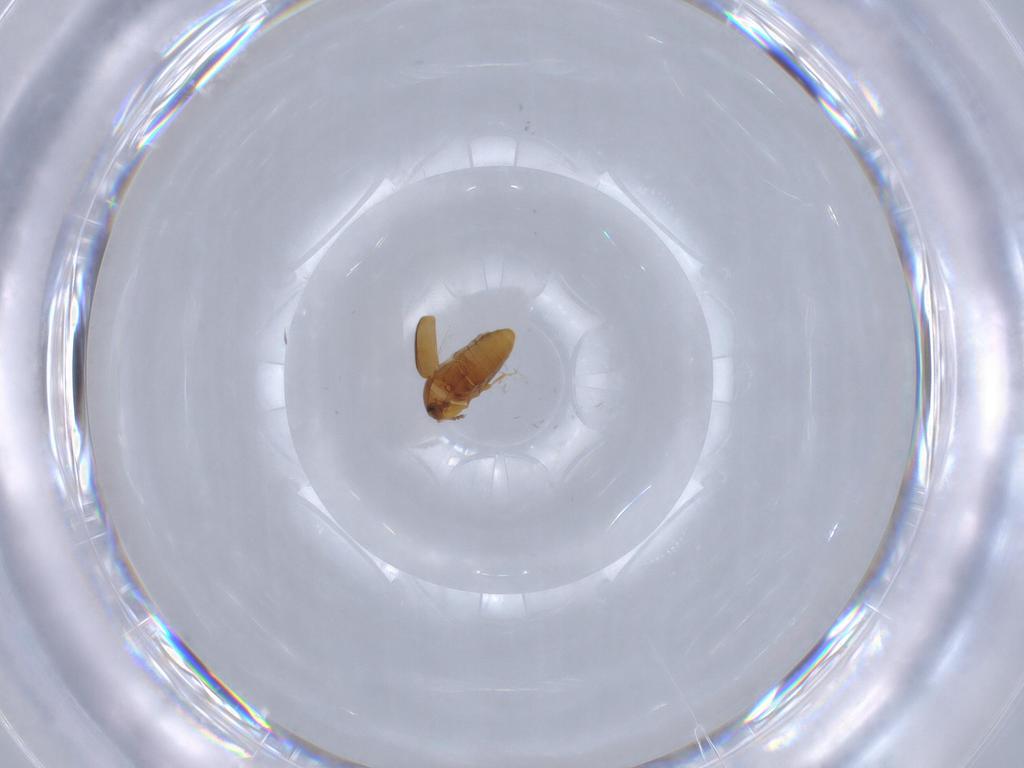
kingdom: Animalia
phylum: Arthropoda
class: Insecta
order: Coleoptera
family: Corylophidae
